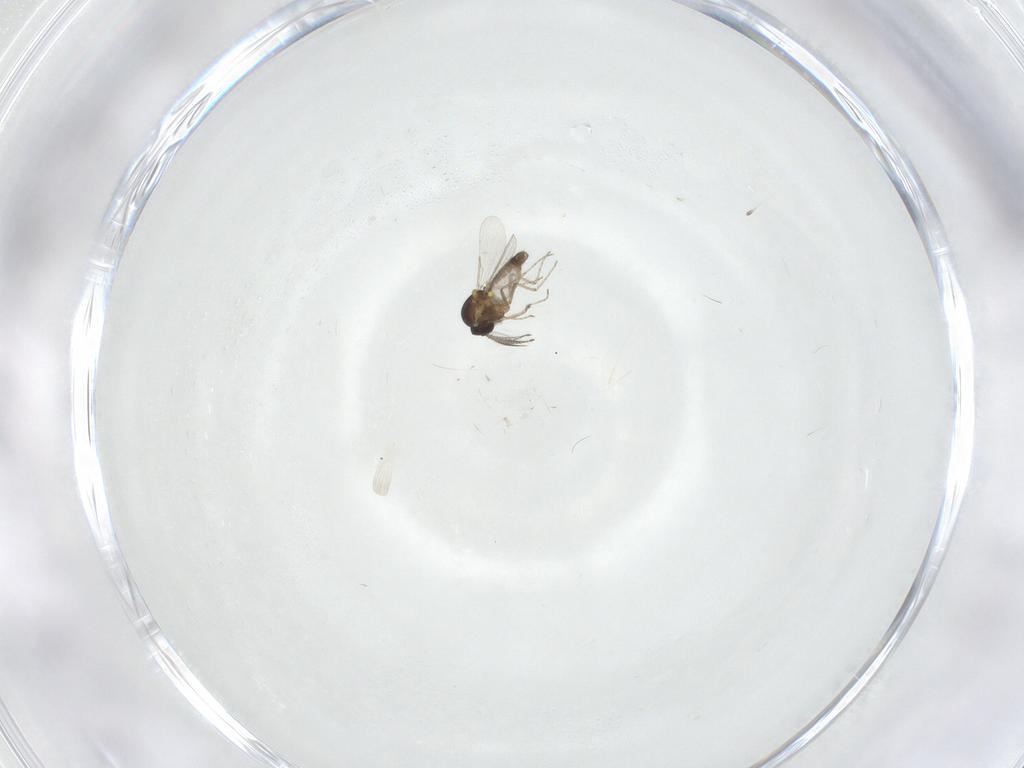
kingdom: Animalia
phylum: Arthropoda
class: Insecta
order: Diptera
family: Ceratopogonidae
